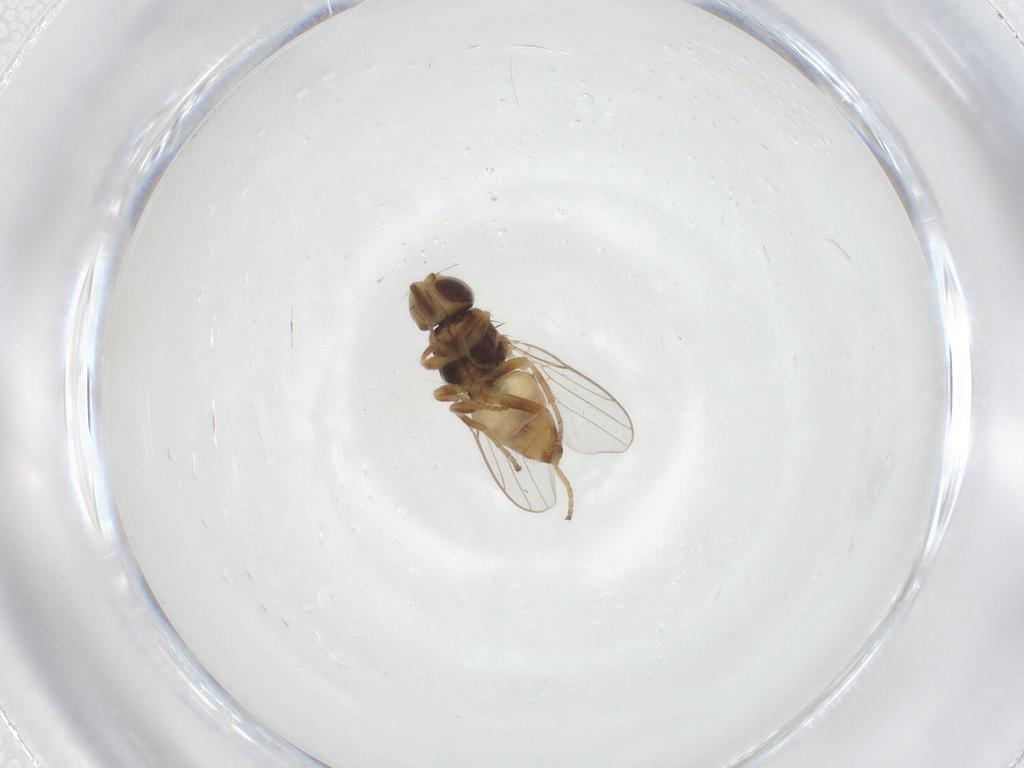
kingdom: Animalia
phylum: Arthropoda
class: Insecta
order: Diptera
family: Chloropidae
